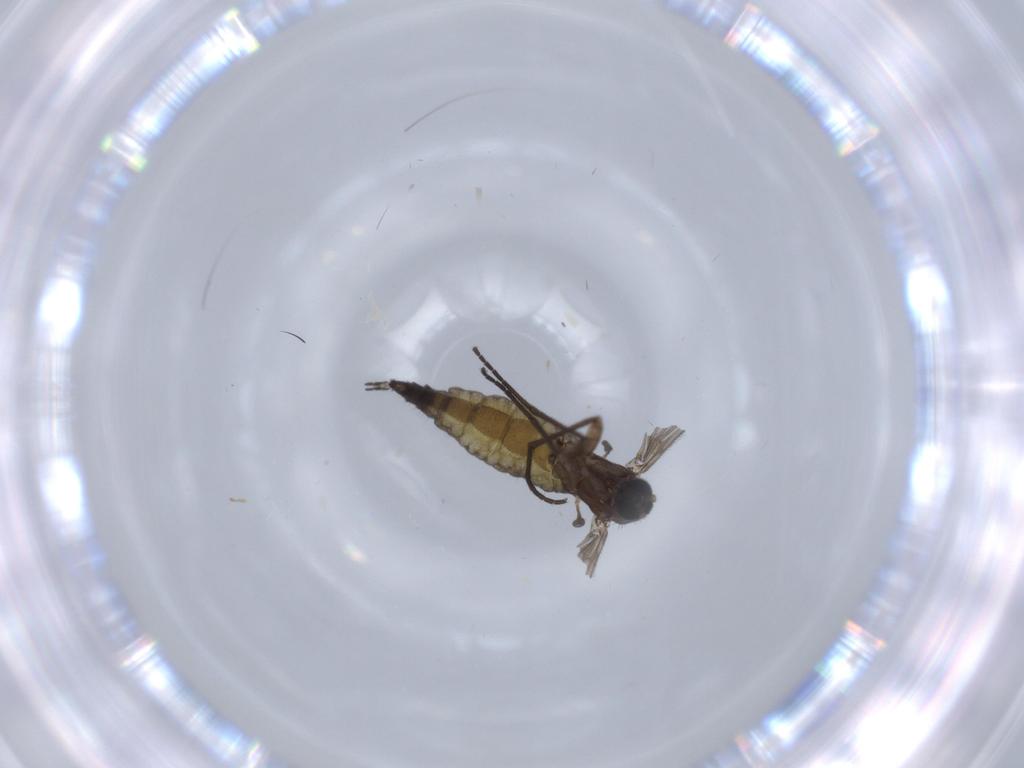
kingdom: Animalia
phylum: Arthropoda
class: Insecta
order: Diptera
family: Sciaridae
